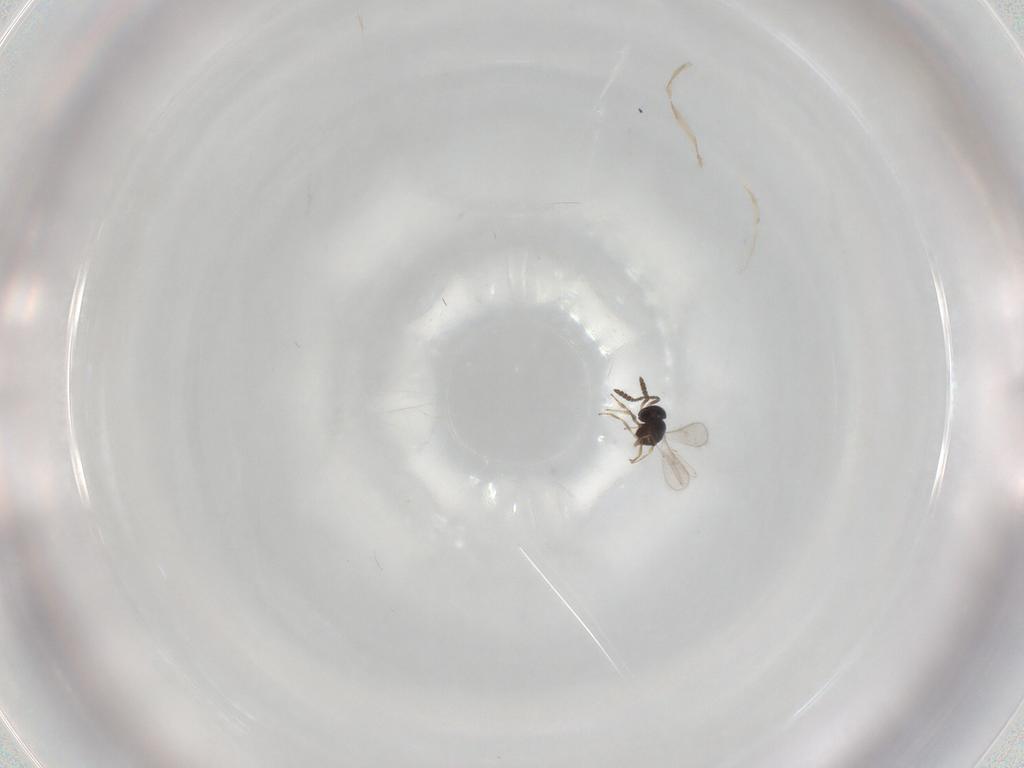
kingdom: Animalia
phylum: Arthropoda
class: Insecta
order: Hymenoptera
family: Scelionidae
